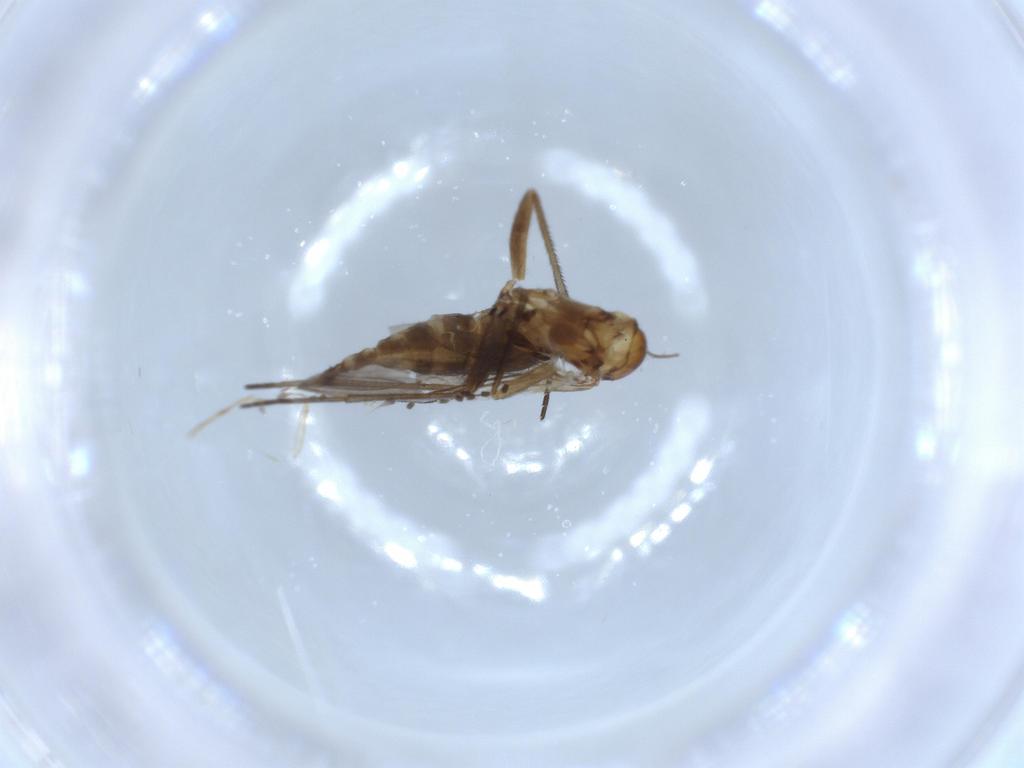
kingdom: Animalia
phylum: Arthropoda
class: Insecta
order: Diptera
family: Sciaridae
